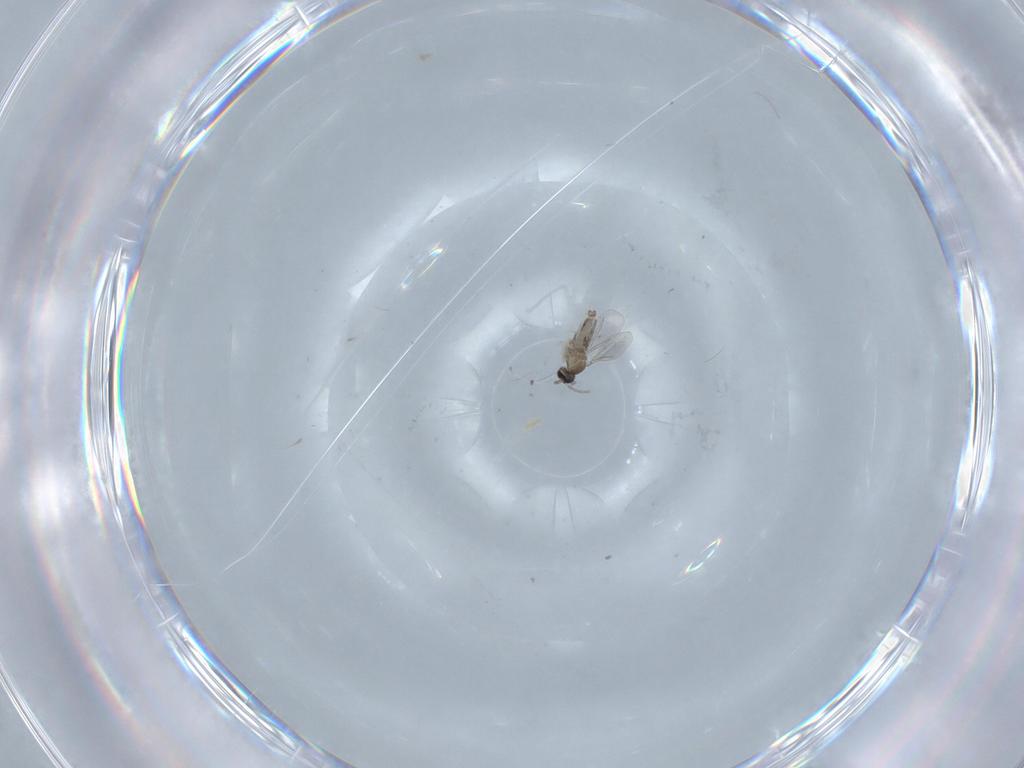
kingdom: Animalia
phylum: Arthropoda
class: Insecta
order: Diptera
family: Cecidomyiidae
